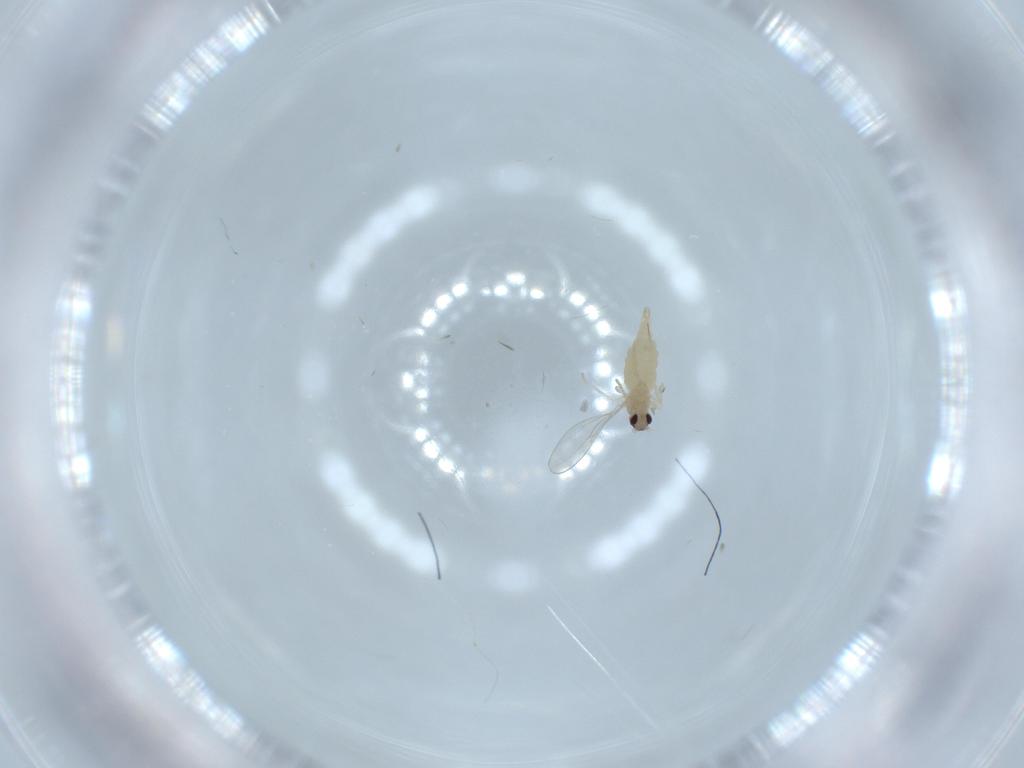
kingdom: Animalia
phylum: Arthropoda
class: Insecta
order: Diptera
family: Cecidomyiidae
